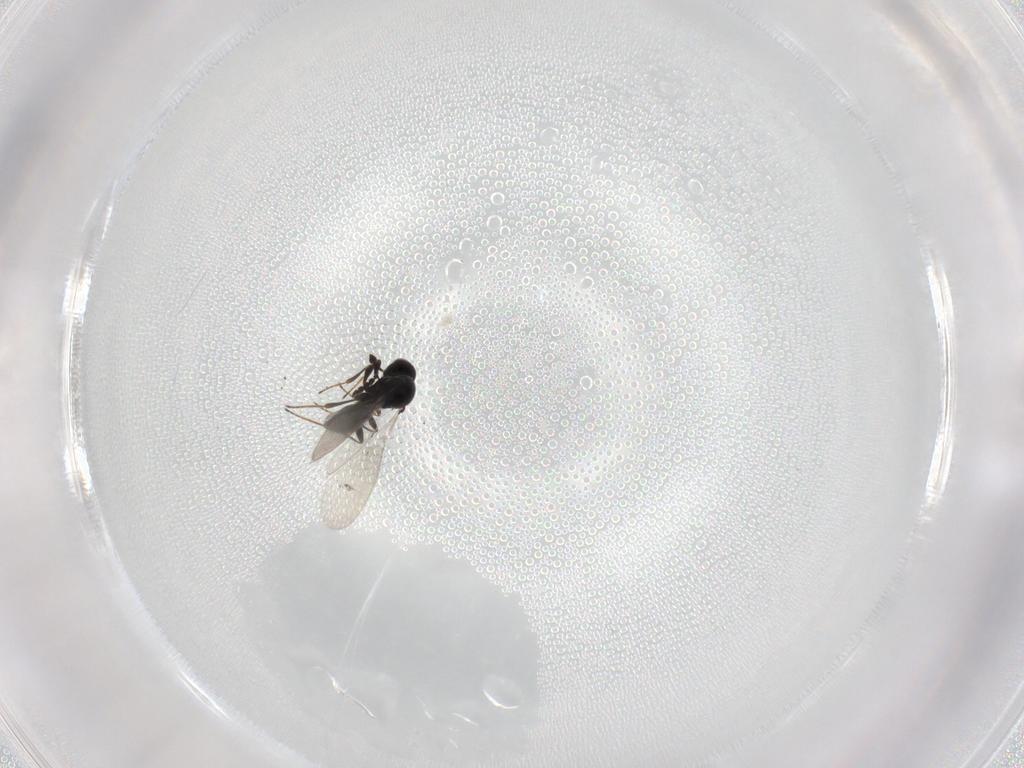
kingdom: Animalia
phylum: Arthropoda
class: Insecta
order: Hymenoptera
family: Platygastridae
